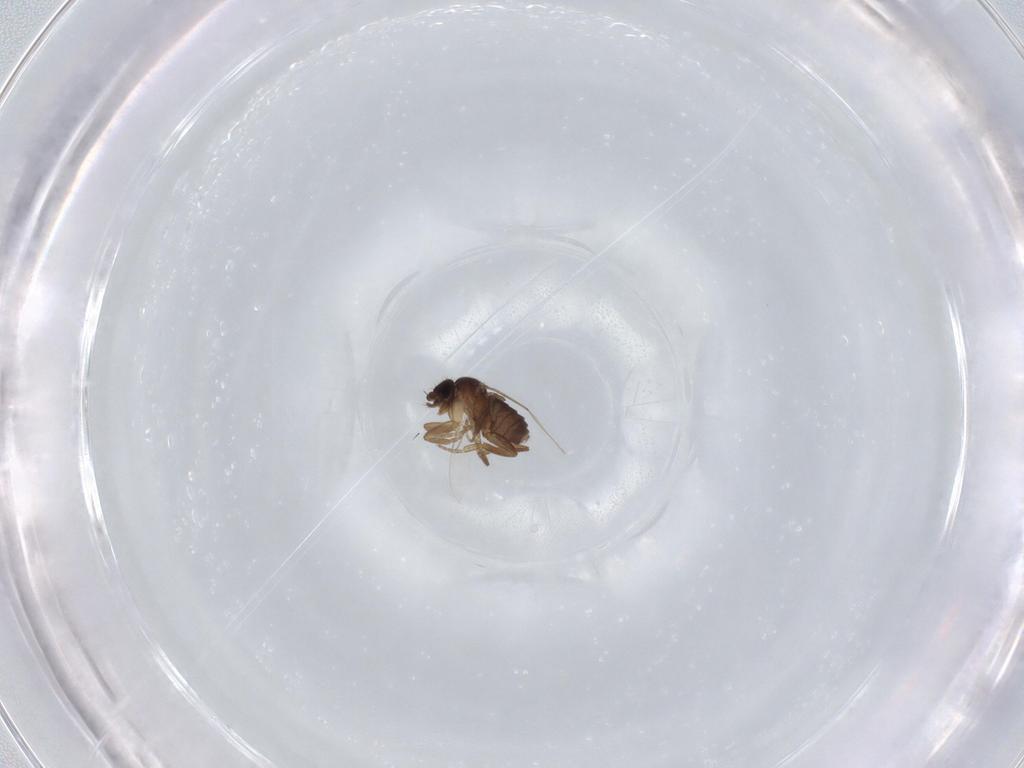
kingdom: Animalia
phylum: Arthropoda
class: Insecta
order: Diptera
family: Phoridae
